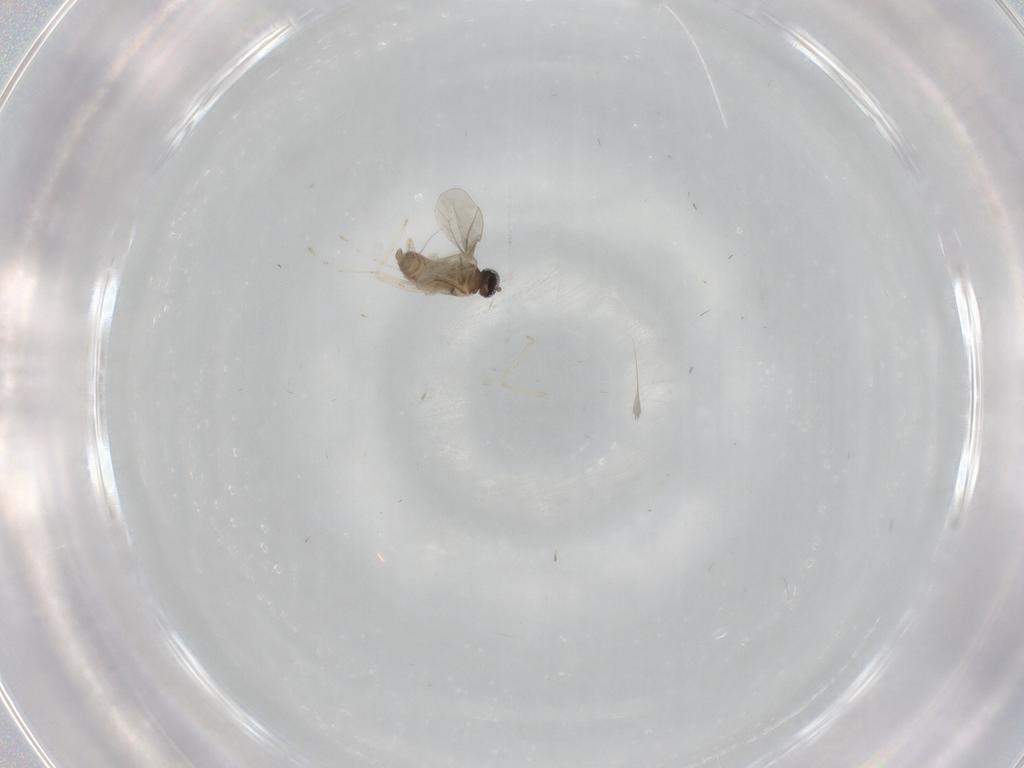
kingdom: Animalia
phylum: Arthropoda
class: Insecta
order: Diptera
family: Cecidomyiidae
